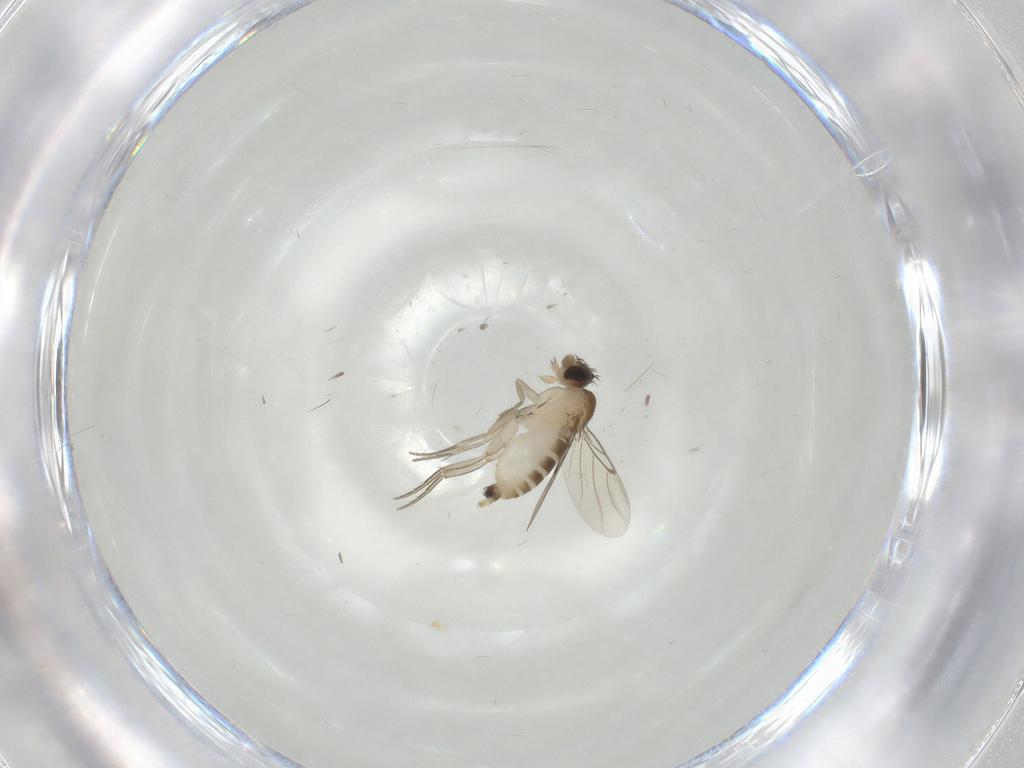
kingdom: Animalia
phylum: Arthropoda
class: Insecta
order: Diptera
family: Phoridae
